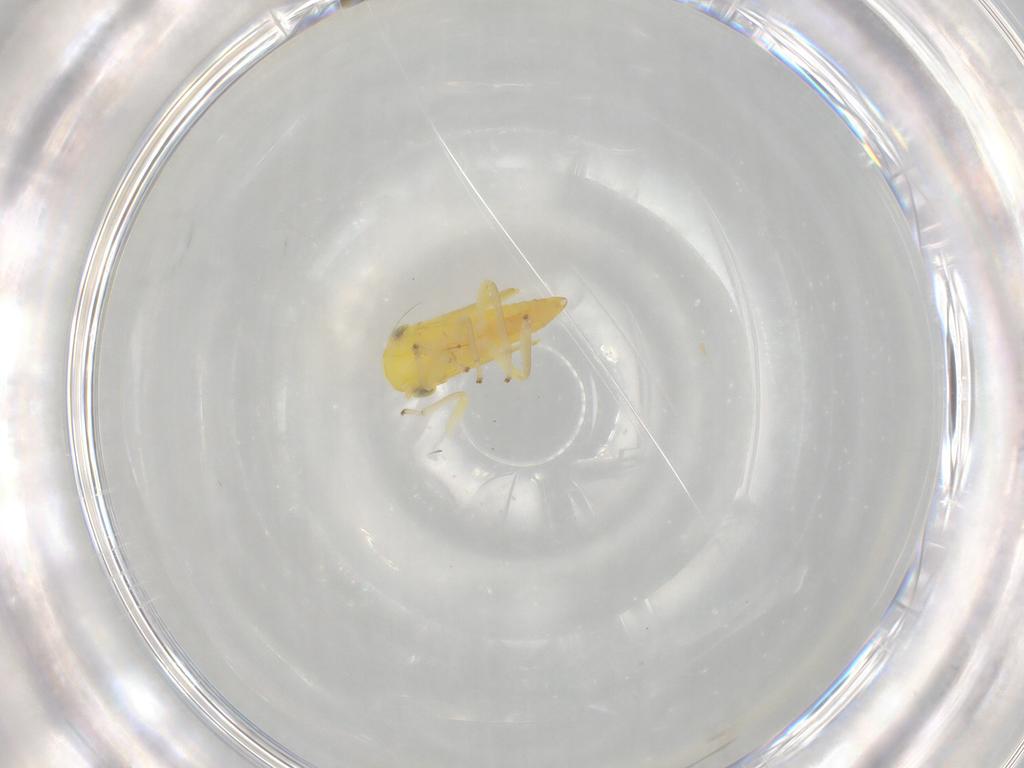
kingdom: Animalia
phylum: Arthropoda
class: Insecta
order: Hemiptera
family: Cicadellidae
